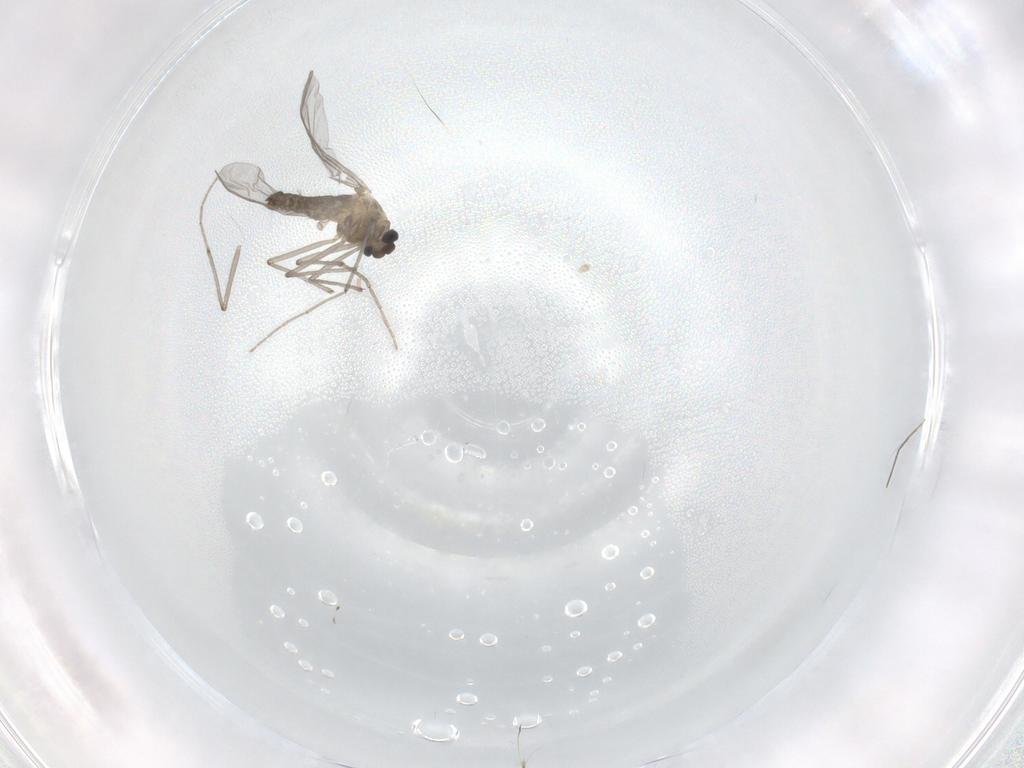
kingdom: Animalia
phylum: Arthropoda
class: Insecta
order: Diptera
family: Chironomidae
